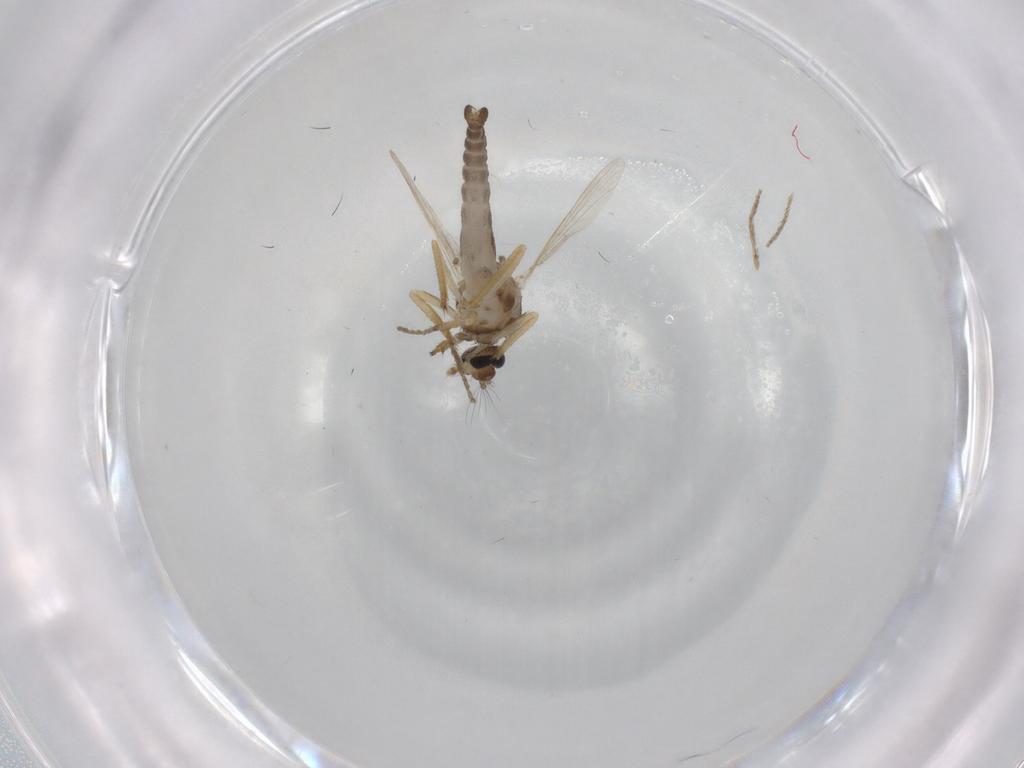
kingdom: Animalia
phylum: Arthropoda
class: Insecta
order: Diptera
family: Ceratopogonidae
